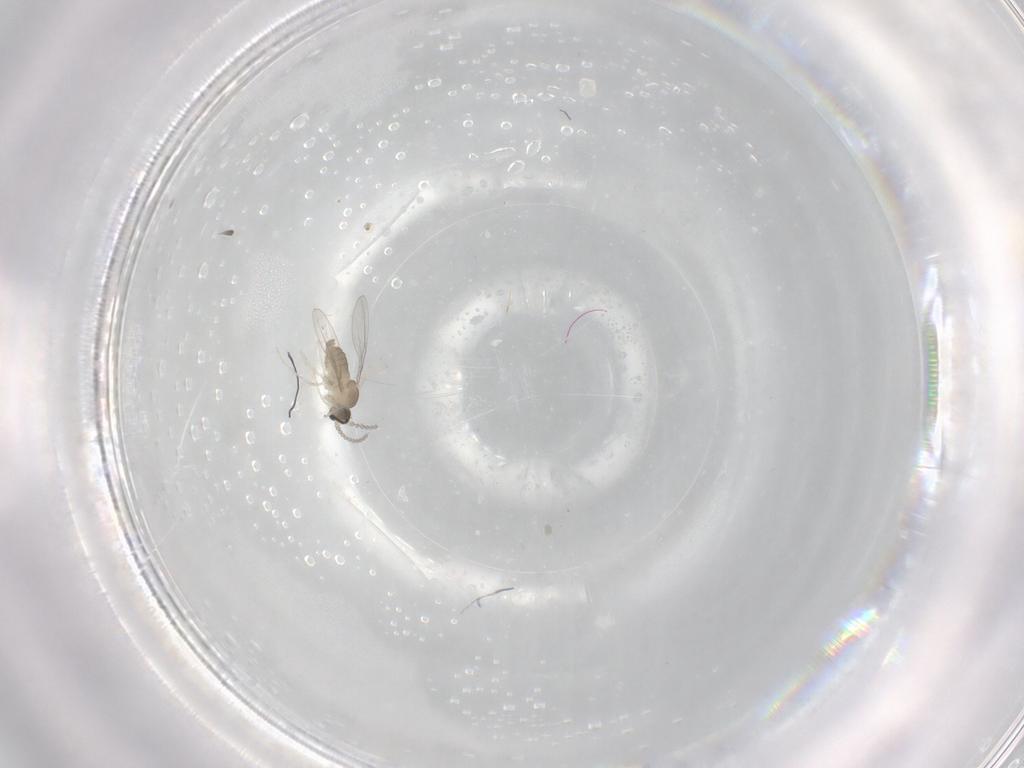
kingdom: Animalia
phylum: Arthropoda
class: Insecta
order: Diptera
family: Cecidomyiidae
